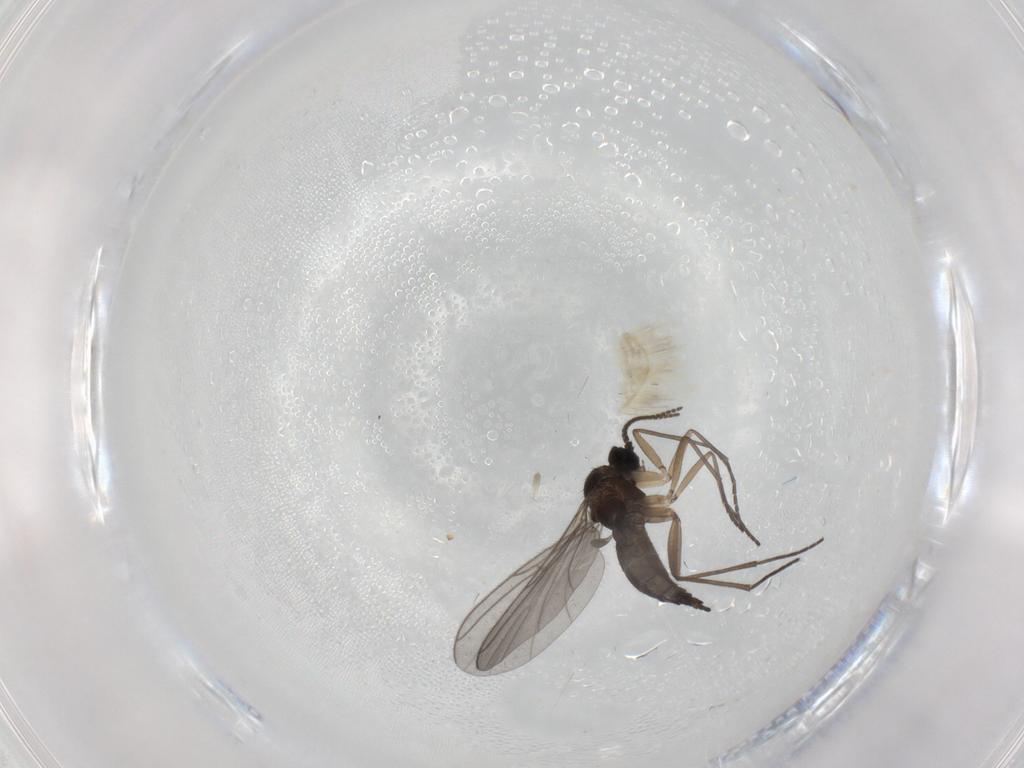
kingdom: Animalia
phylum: Arthropoda
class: Insecta
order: Diptera
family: Sciaridae
